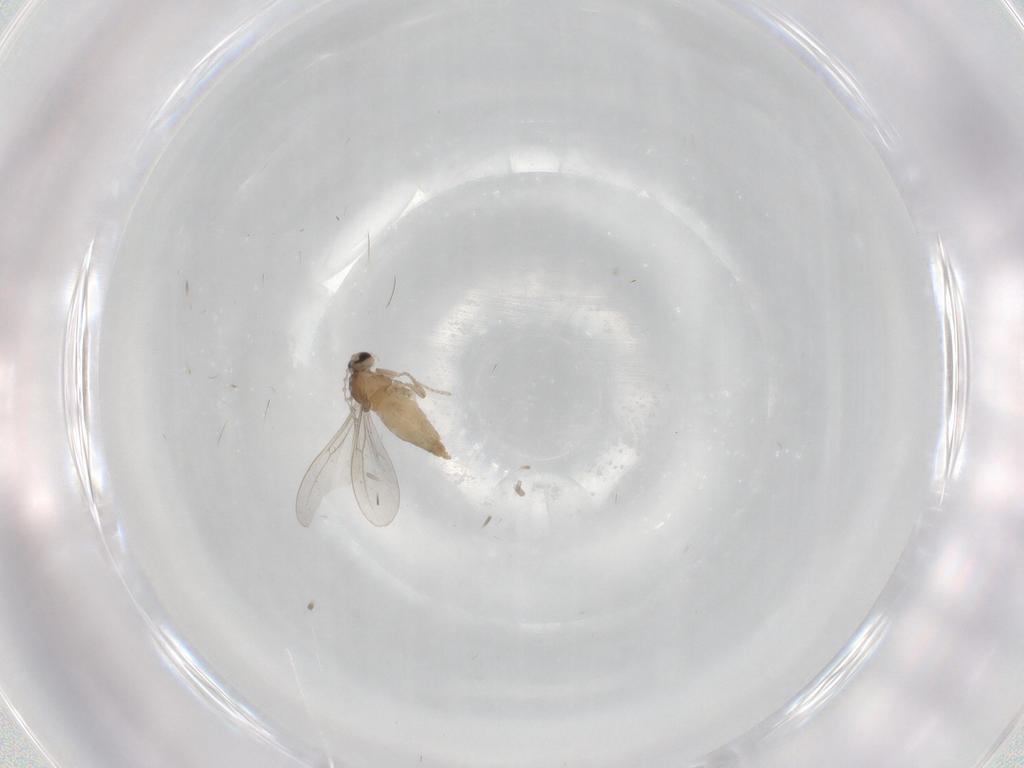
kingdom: Animalia
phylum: Arthropoda
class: Insecta
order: Diptera
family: Cecidomyiidae
